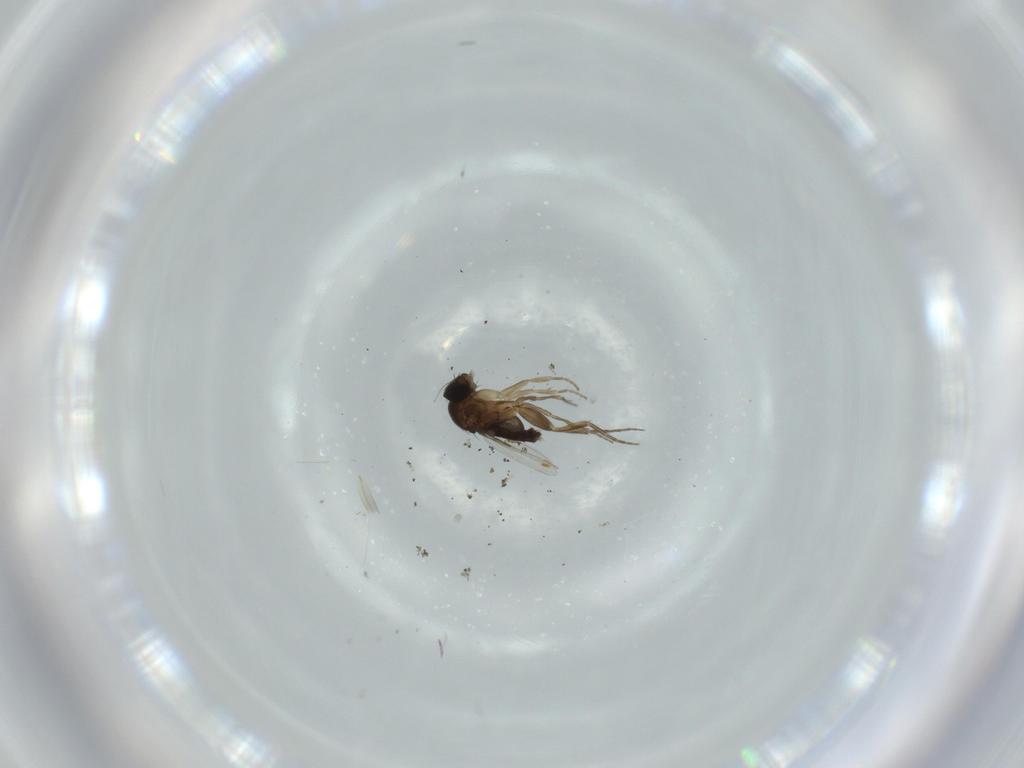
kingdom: Animalia
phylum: Arthropoda
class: Insecta
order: Diptera
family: Phoridae
